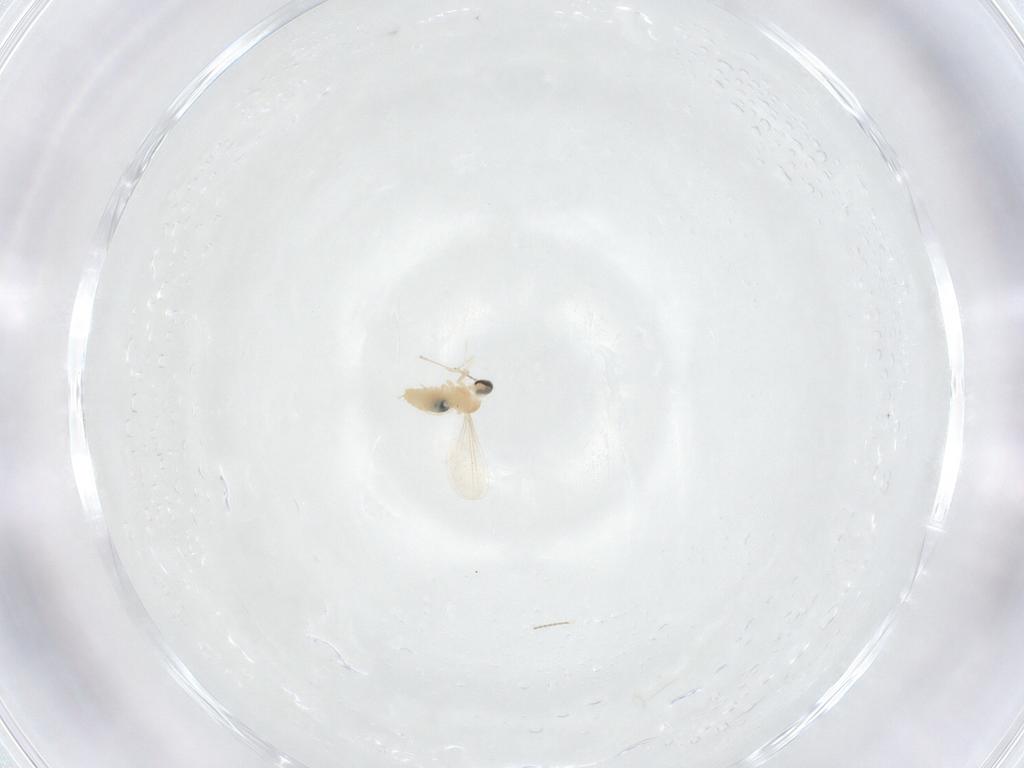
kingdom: Animalia
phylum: Arthropoda
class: Insecta
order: Diptera
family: Cecidomyiidae
